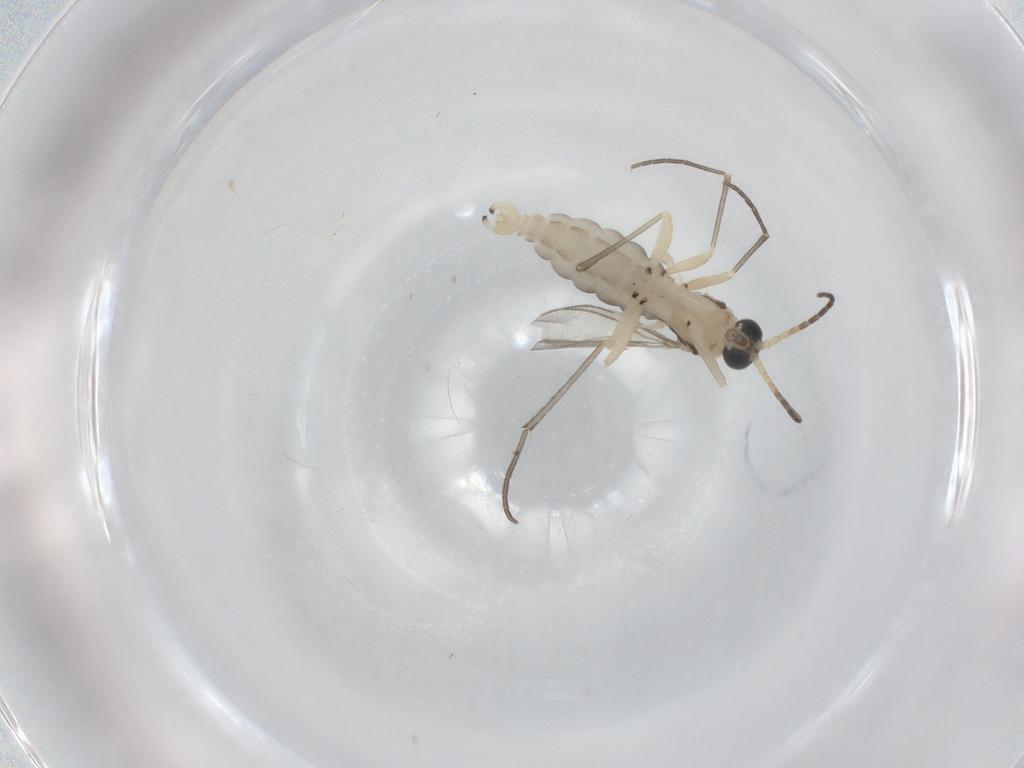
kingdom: Animalia
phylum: Arthropoda
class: Insecta
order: Diptera
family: Sciaridae
